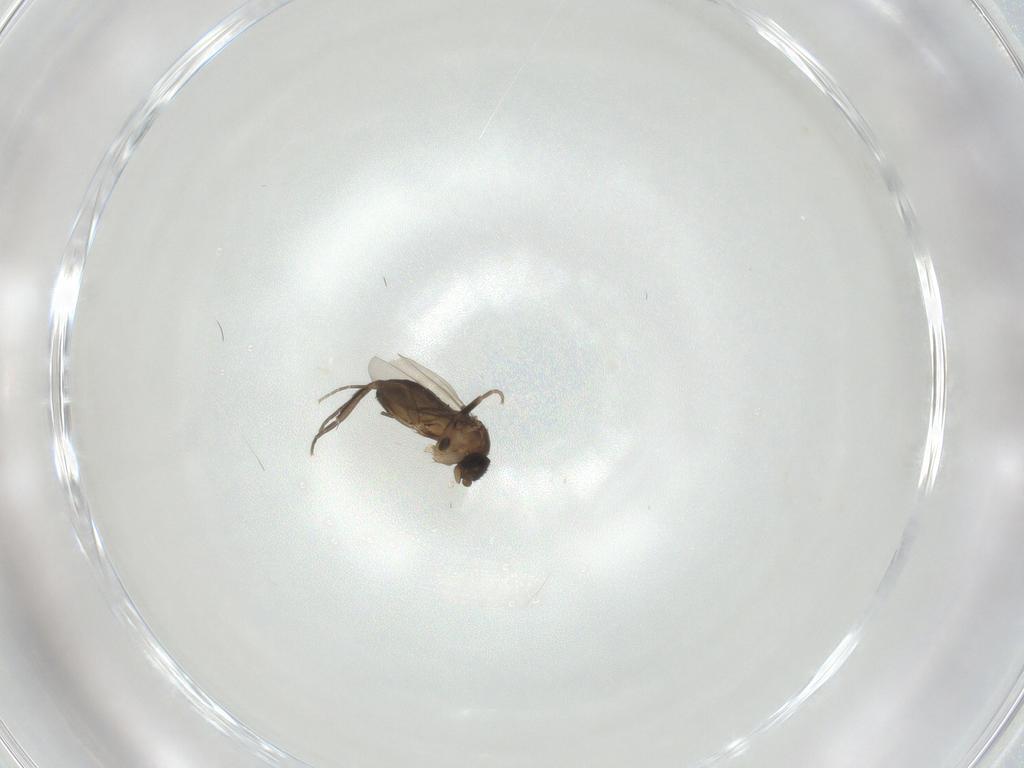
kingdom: Animalia
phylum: Arthropoda
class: Insecta
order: Diptera
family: Phoridae
